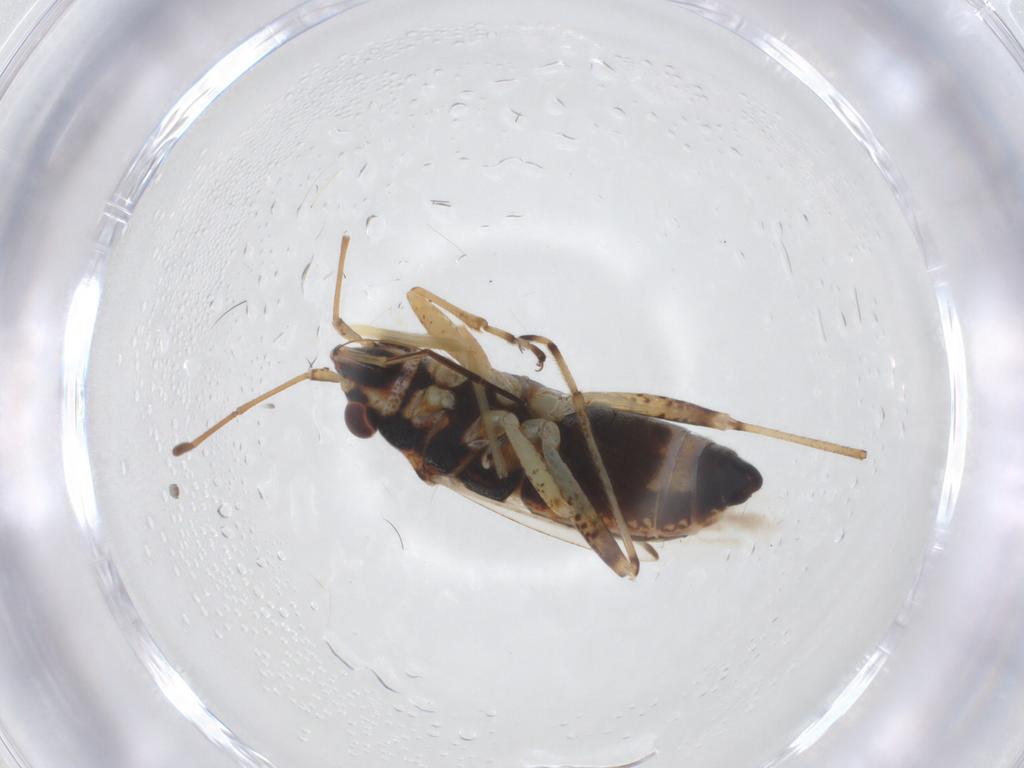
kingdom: Animalia
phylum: Arthropoda
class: Insecta
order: Hemiptera
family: Lygaeidae
